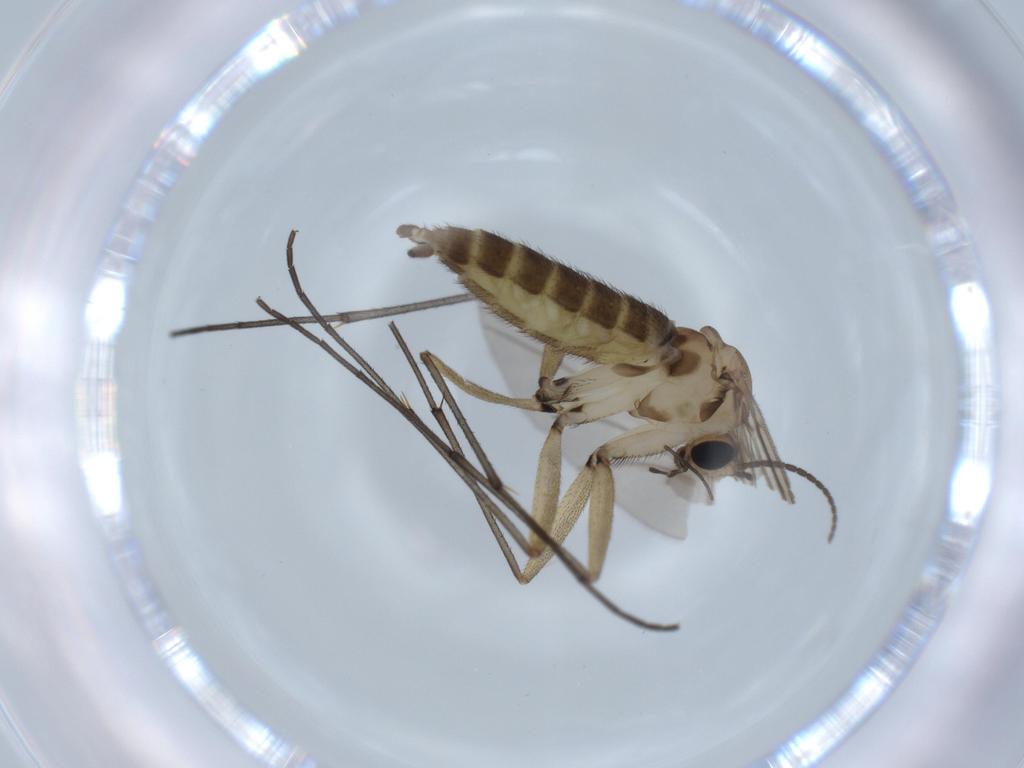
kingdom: Animalia
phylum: Arthropoda
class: Insecta
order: Diptera
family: Sciaridae
